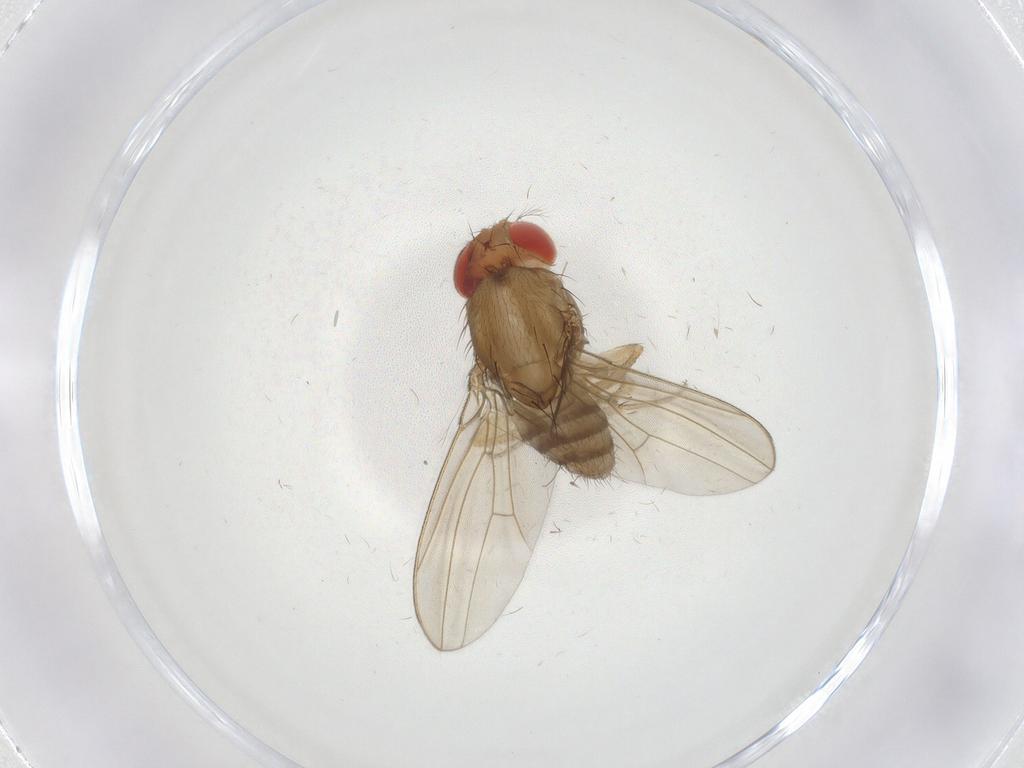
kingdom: Animalia
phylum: Arthropoda
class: Insecta
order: Diptera
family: Drosophilidae
